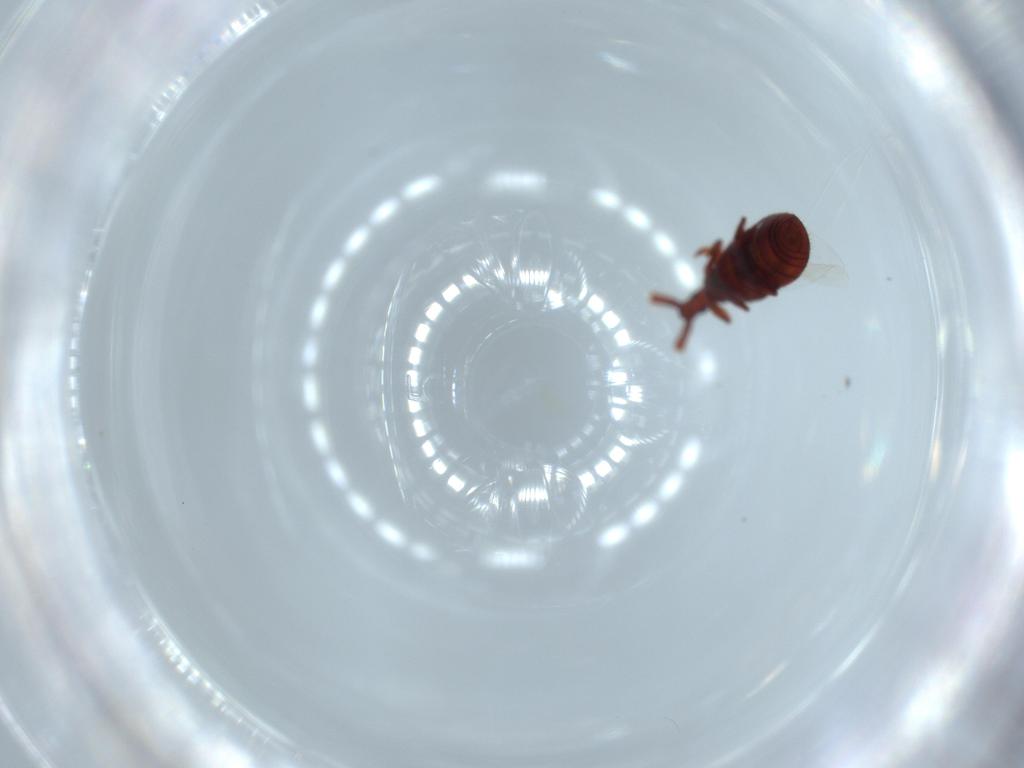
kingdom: Animalia
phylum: Arthropoda
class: Insecta
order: Coleoptera
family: Staphylinidae
